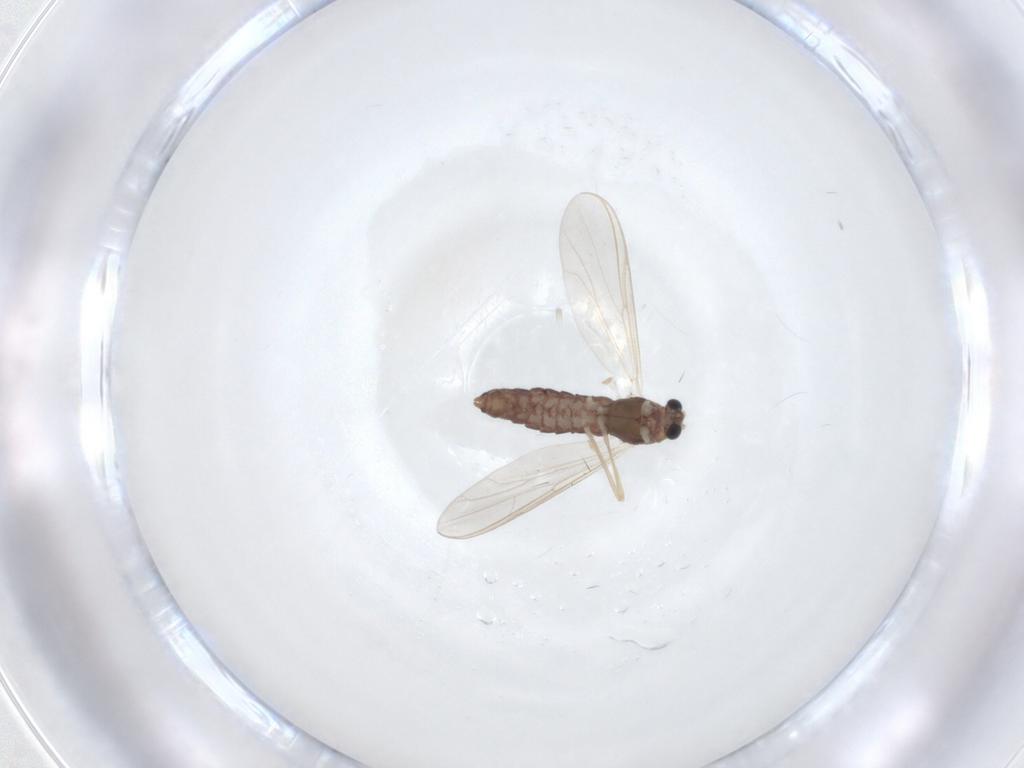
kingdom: Animalia
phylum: Arthropoda
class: Insecta
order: Diptera
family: Chironomidae
